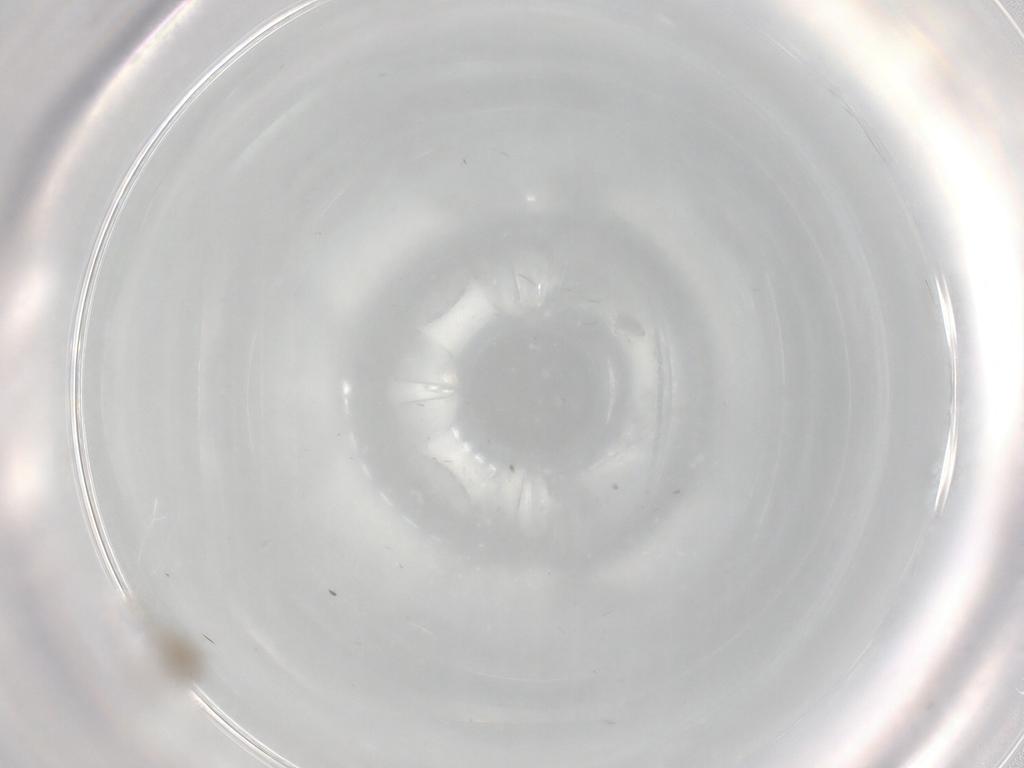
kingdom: Animalia
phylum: Arthropoda
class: Insecta
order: Diptera
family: Psychodidae
